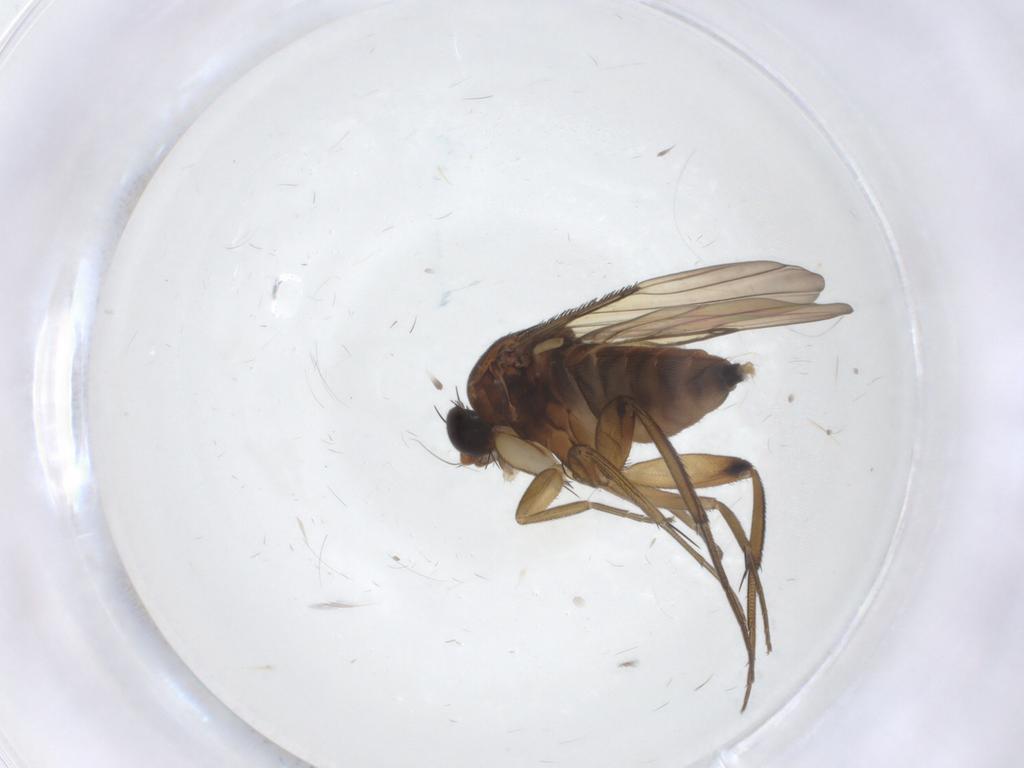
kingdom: Animalia
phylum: Arthropoda
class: Insecta
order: Diptera
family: Phoridae
